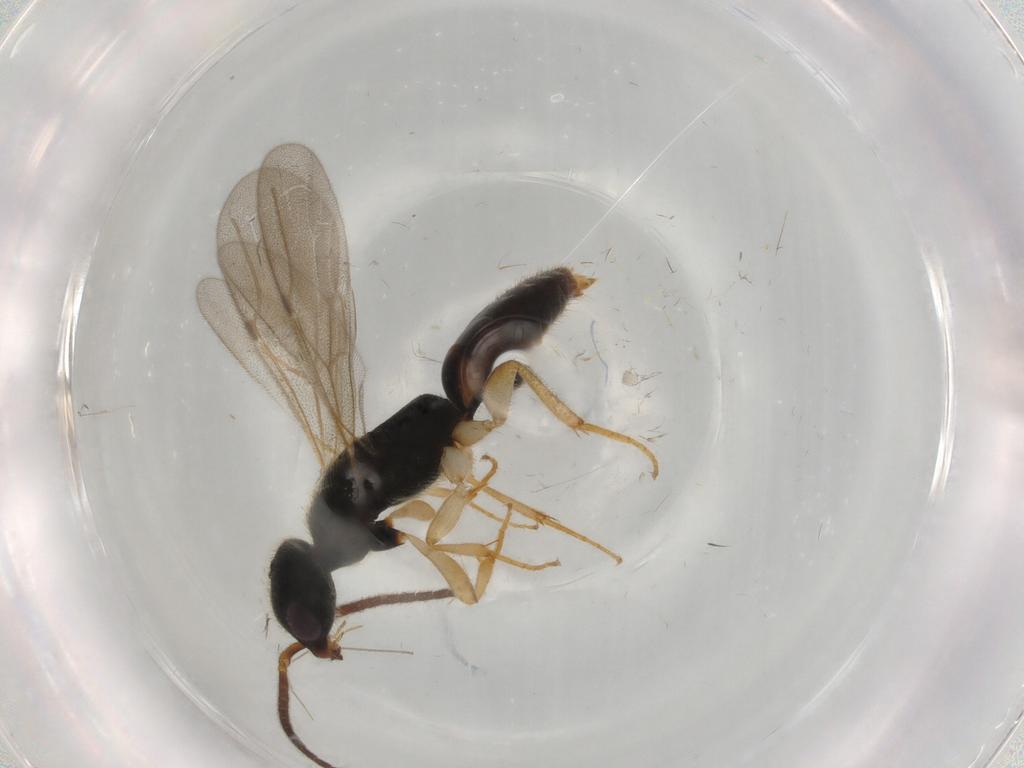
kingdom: Animalia
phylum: Arthropoda
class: Insecta
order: Hymenoptera
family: Bethylidae
